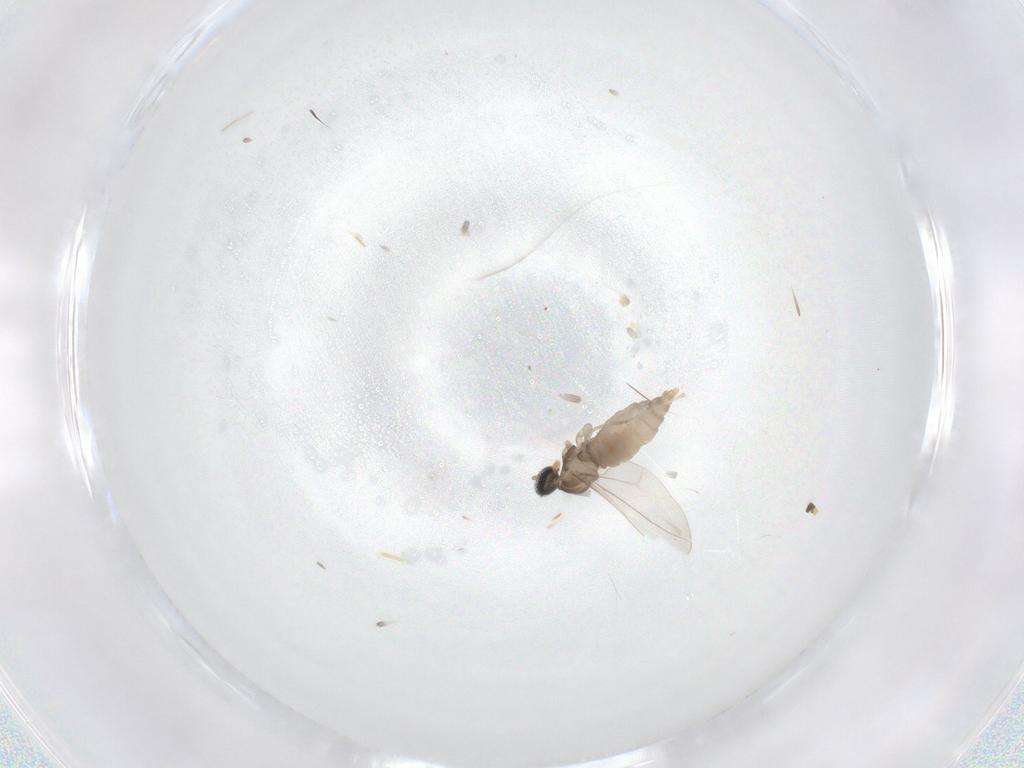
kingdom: Animalia
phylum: Arthropoda
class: Insecta
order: Diptera
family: Cecidomyiidae
